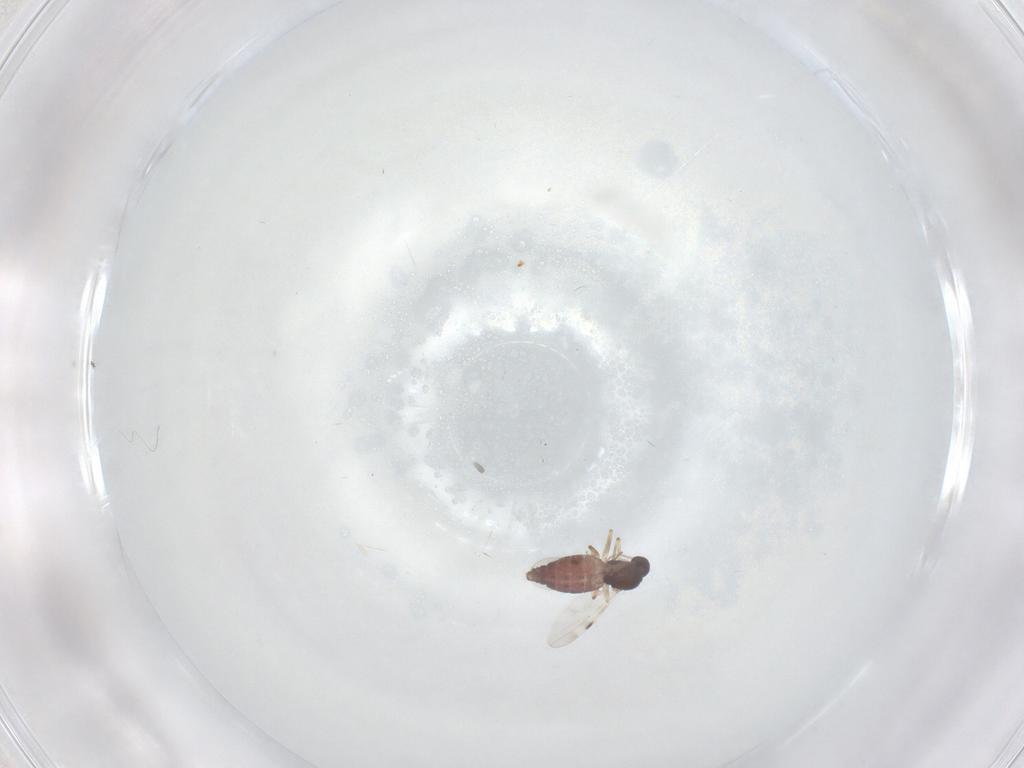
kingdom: Animalia
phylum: Arthropoda
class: Insecta
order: Diptera
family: Cecidomyiidae
